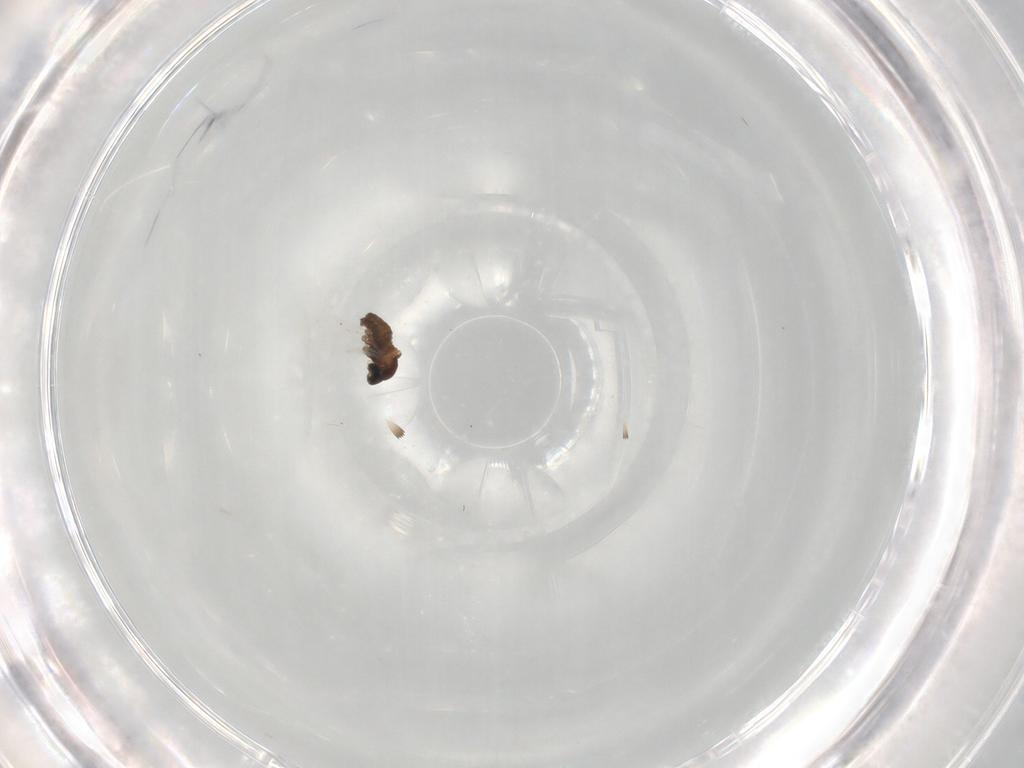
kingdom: Animalia
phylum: Arthropoda
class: Insecta
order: Diptera
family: Cecidomyiidae
